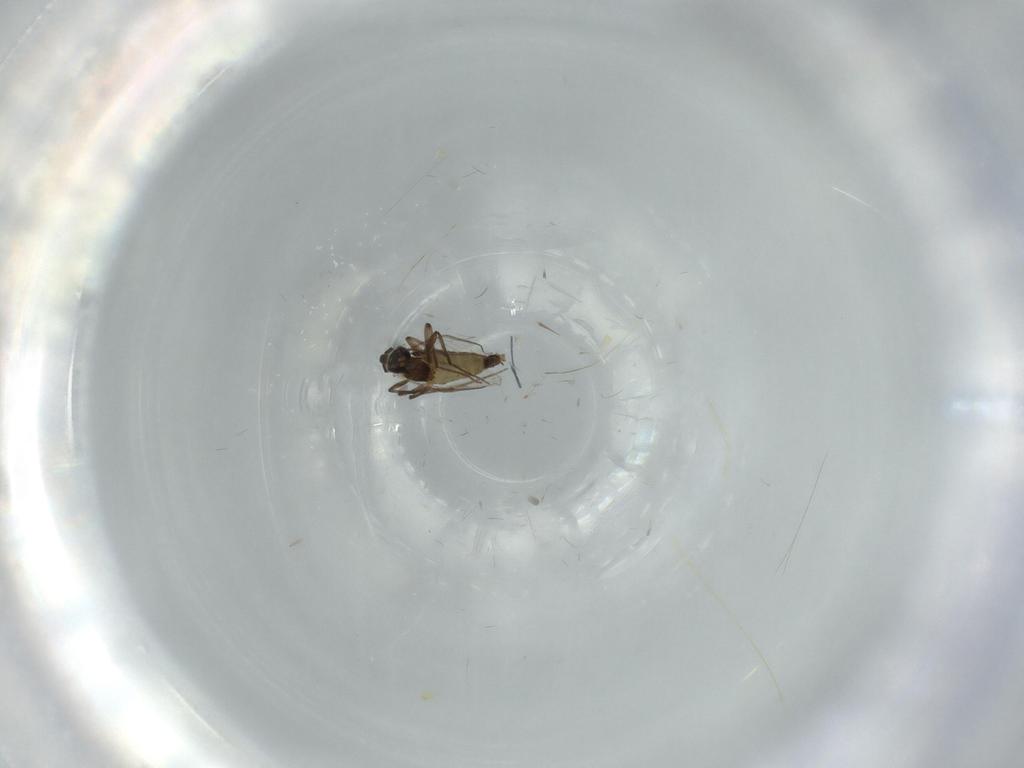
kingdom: Animalia
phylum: Arthropoda
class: Insecta
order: Diptera
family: Chironomidae
